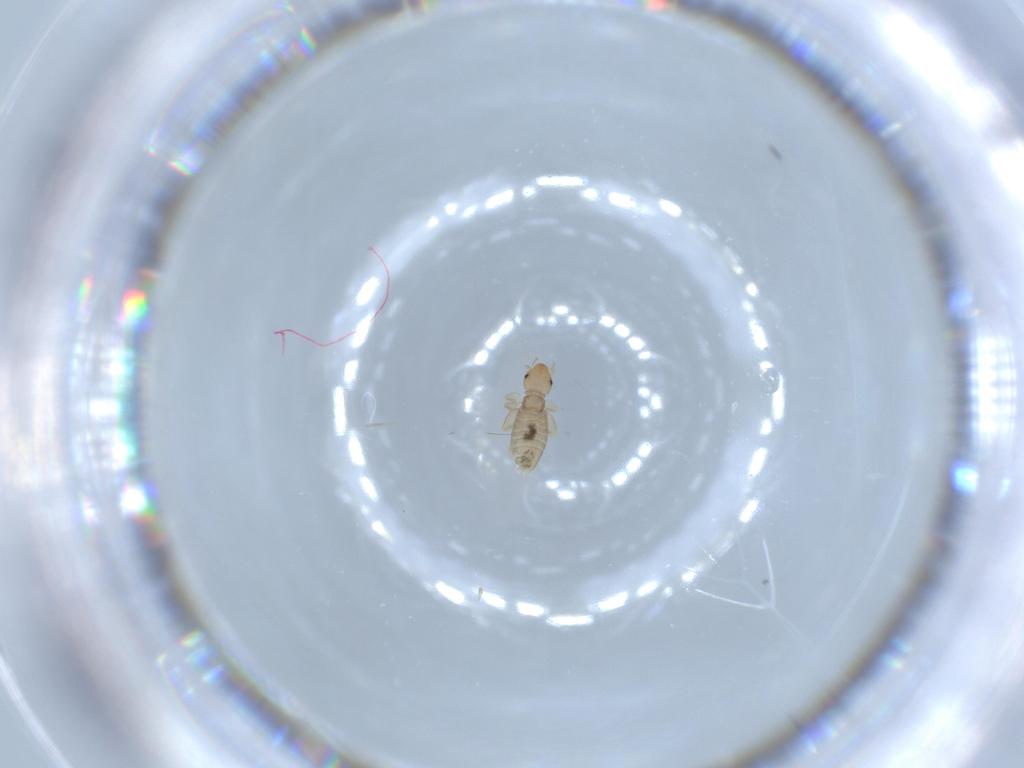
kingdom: Animalia
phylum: Arthropoda
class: Insecta
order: Psocodea
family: Liposcelididae
